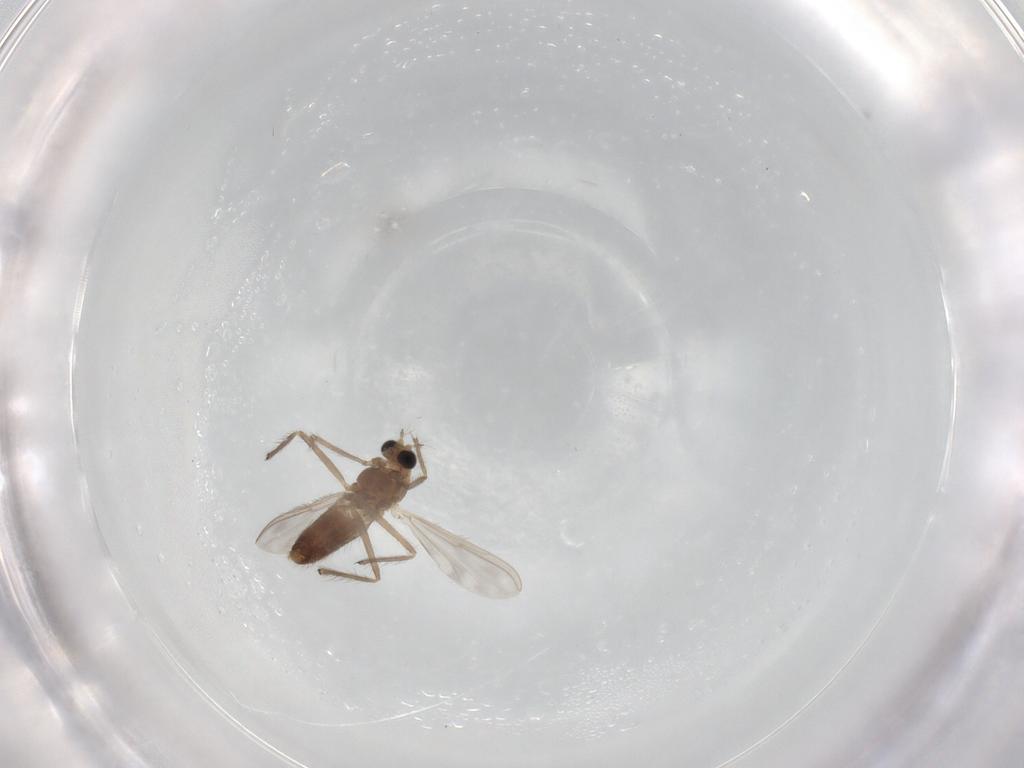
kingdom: Animalia
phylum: Arthropoda
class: Insecta
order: Diptera
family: Chironomidae
